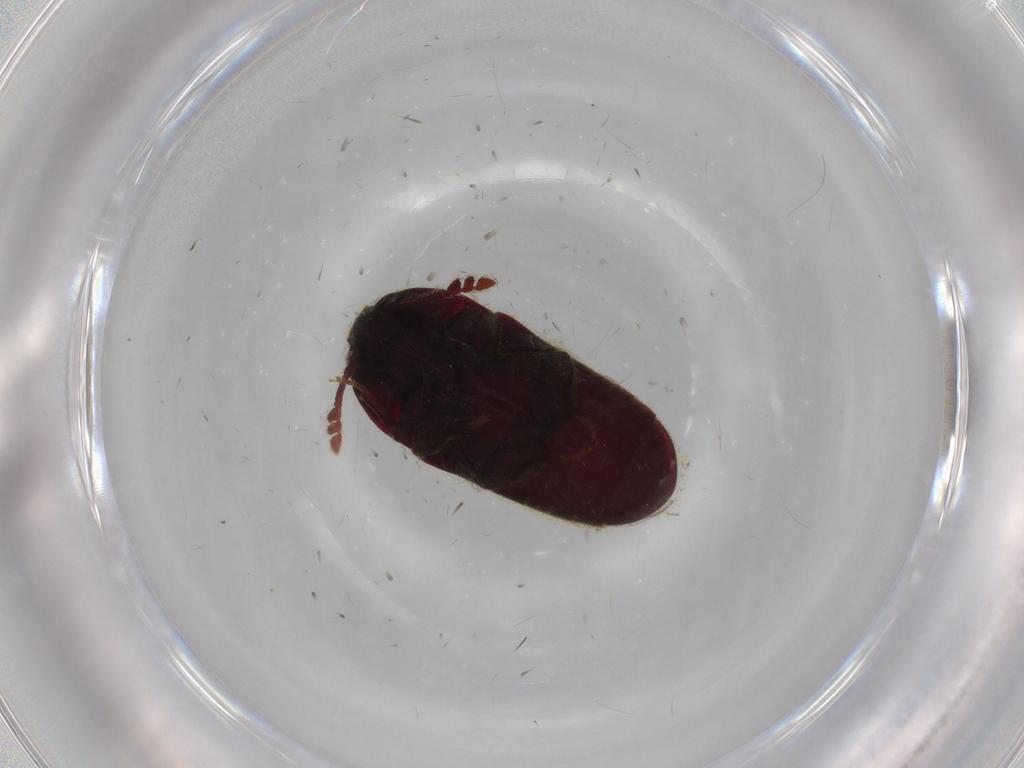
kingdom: Animalia
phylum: Arthropoda
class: Insecta
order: Coleoptera
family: Throscidae
